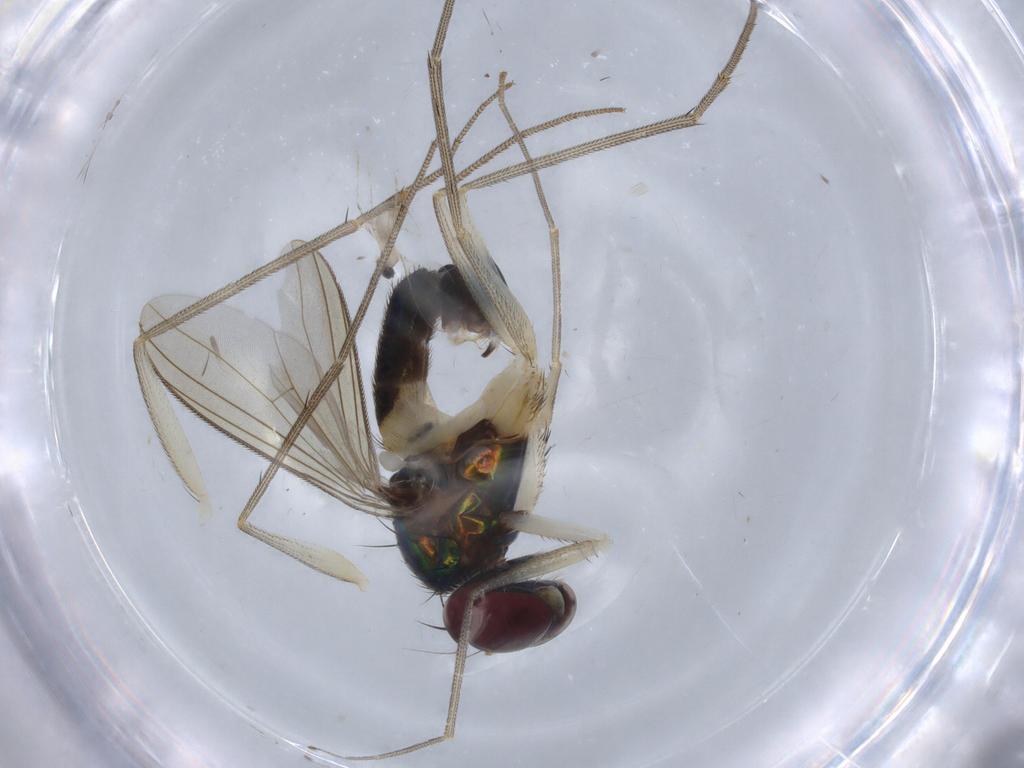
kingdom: Animalia
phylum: Arthropoda
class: Insecta
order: Diptera
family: Dolichopodidae
